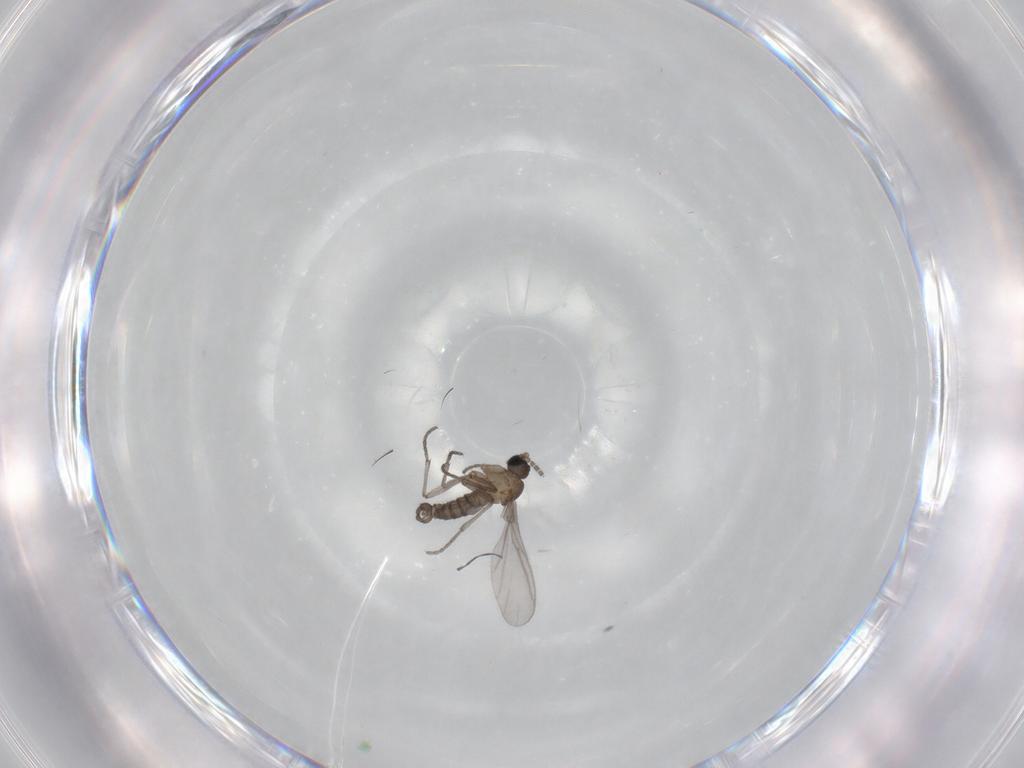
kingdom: Animalia
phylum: Arthropoda
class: Insecta
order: Diptera
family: Sciaridae
